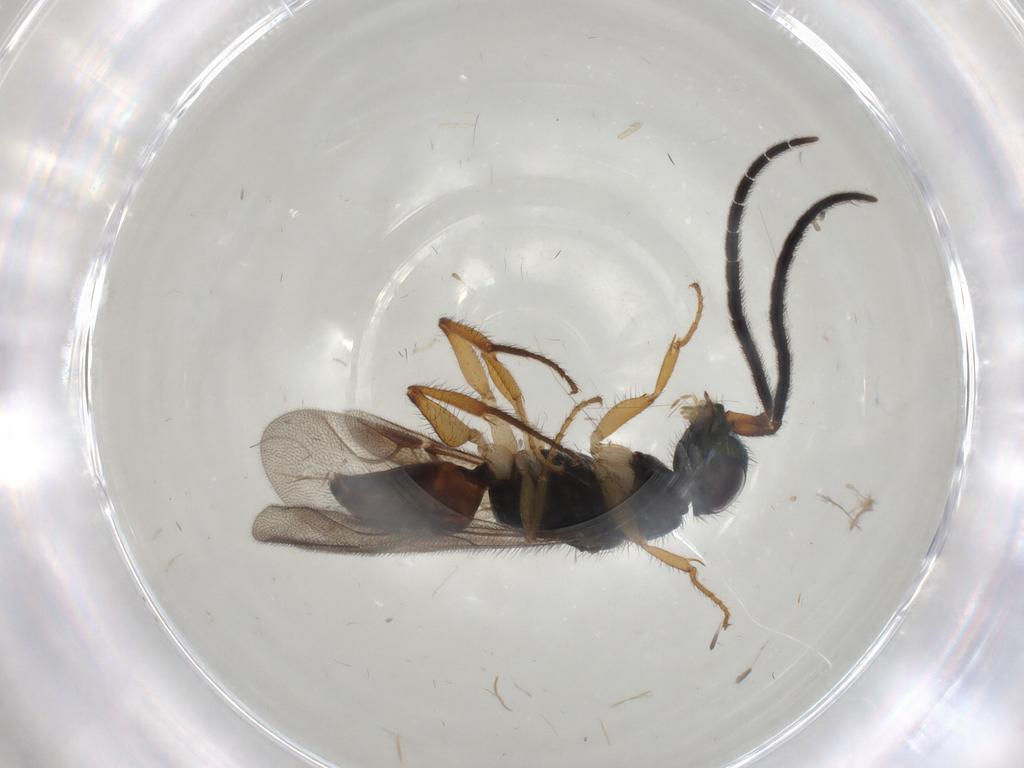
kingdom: Animalia
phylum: Arthropoda
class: Insecta
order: Hymenoptera
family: Chrysididae
